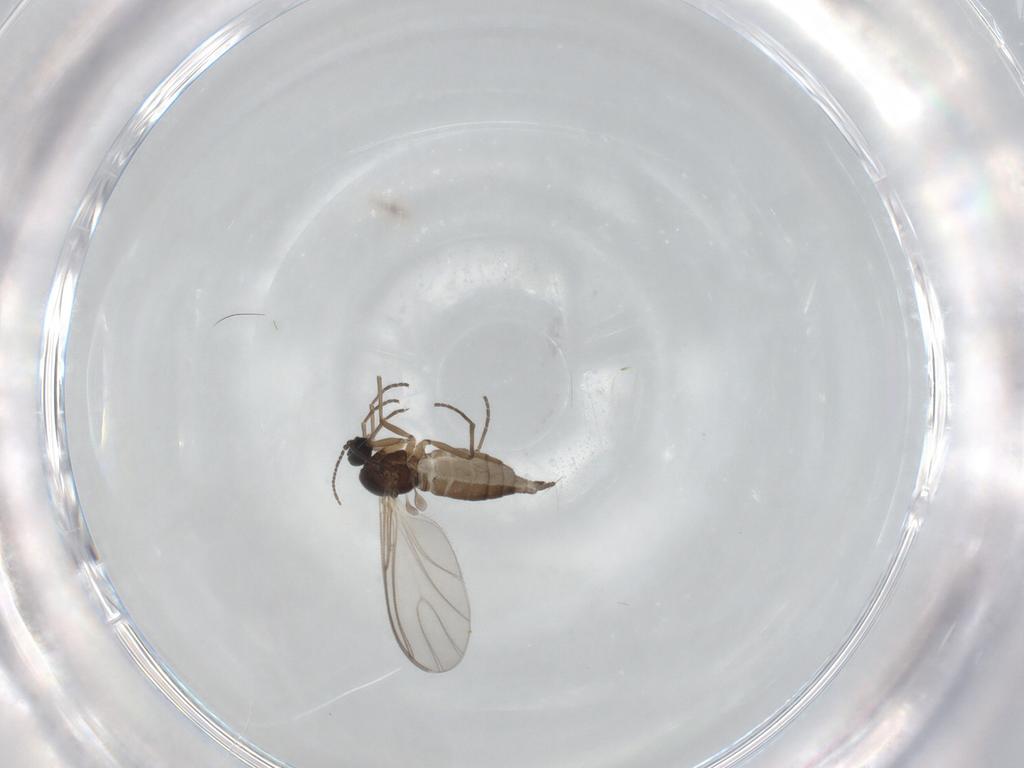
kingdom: Animalia
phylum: Arthropoda
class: Insecta
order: Diptera
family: Sciaridae
